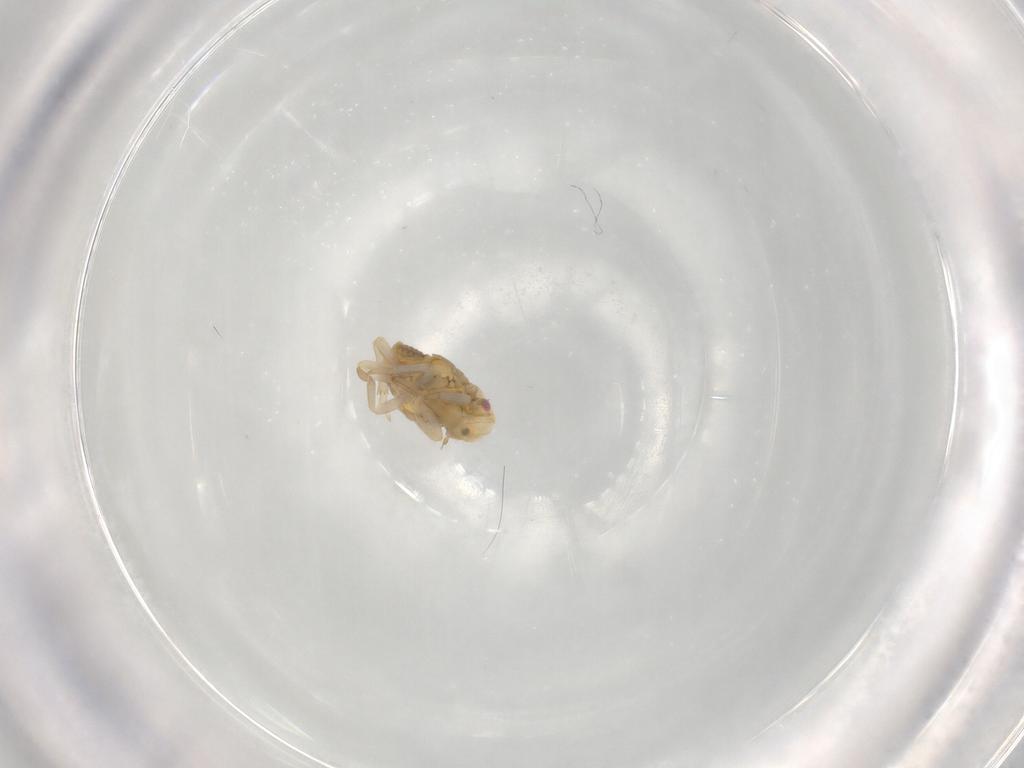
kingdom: Animalia
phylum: Arthropoda
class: Insecta
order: Hemiptera
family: Flatidae
